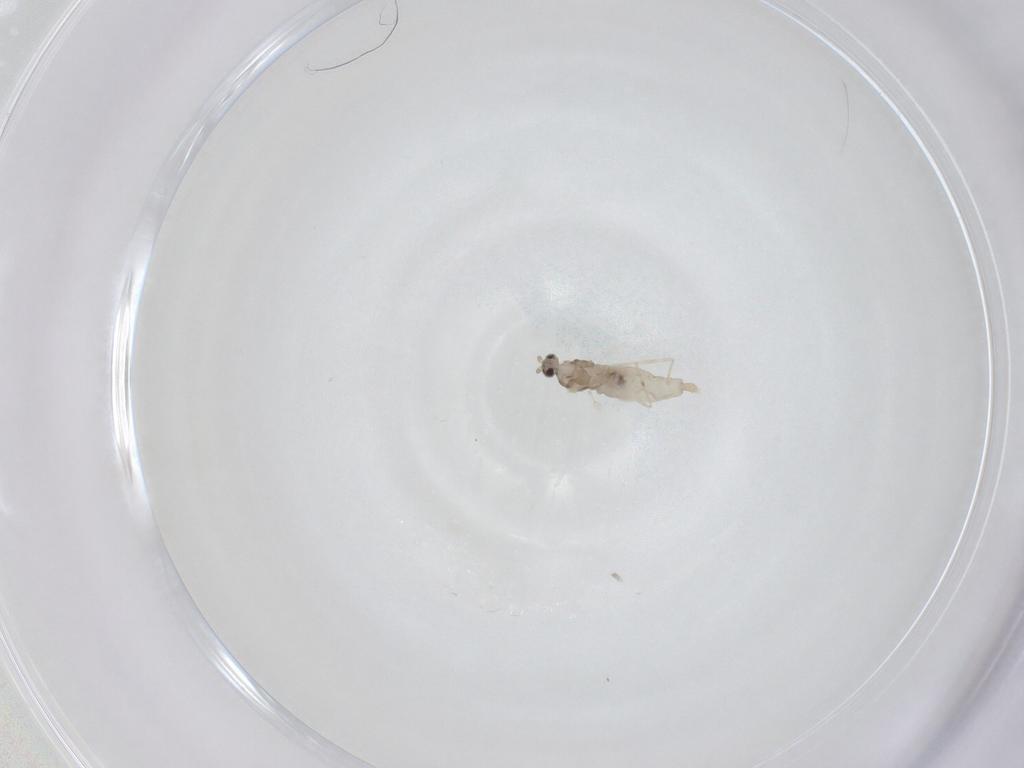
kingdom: Animalia
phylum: Arthropoda
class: Insecta
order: Diptera
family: Cecidomyiidae
